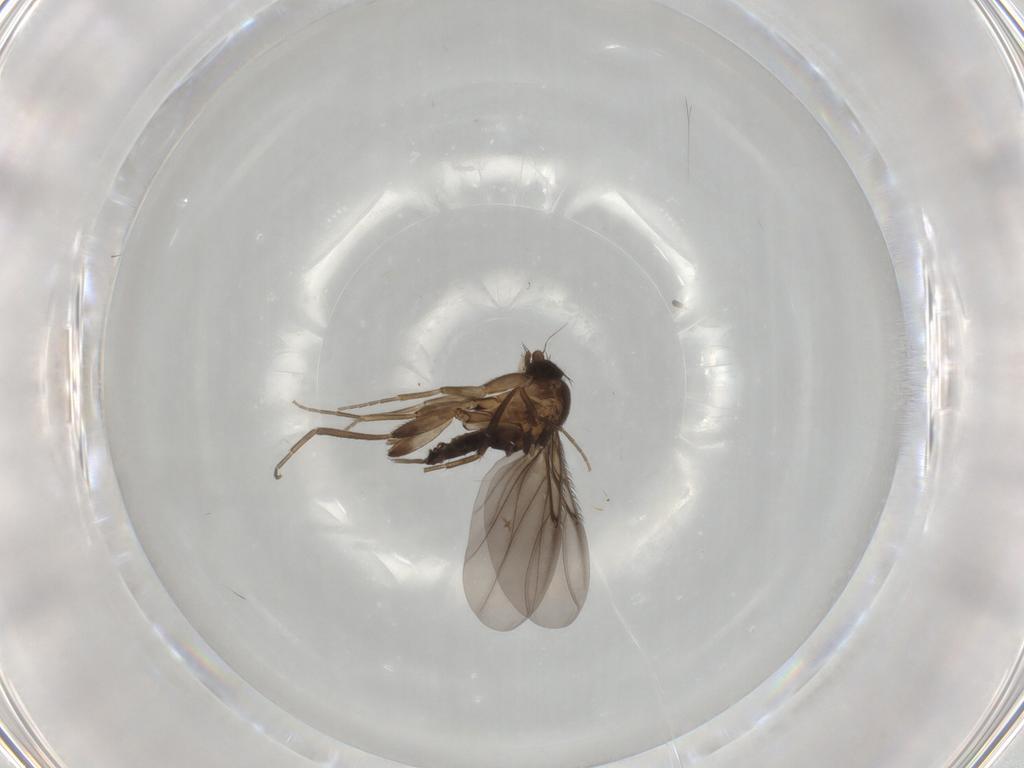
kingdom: Animalia
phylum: Arthropoda
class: Insecta
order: Diptera
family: Phoridae
